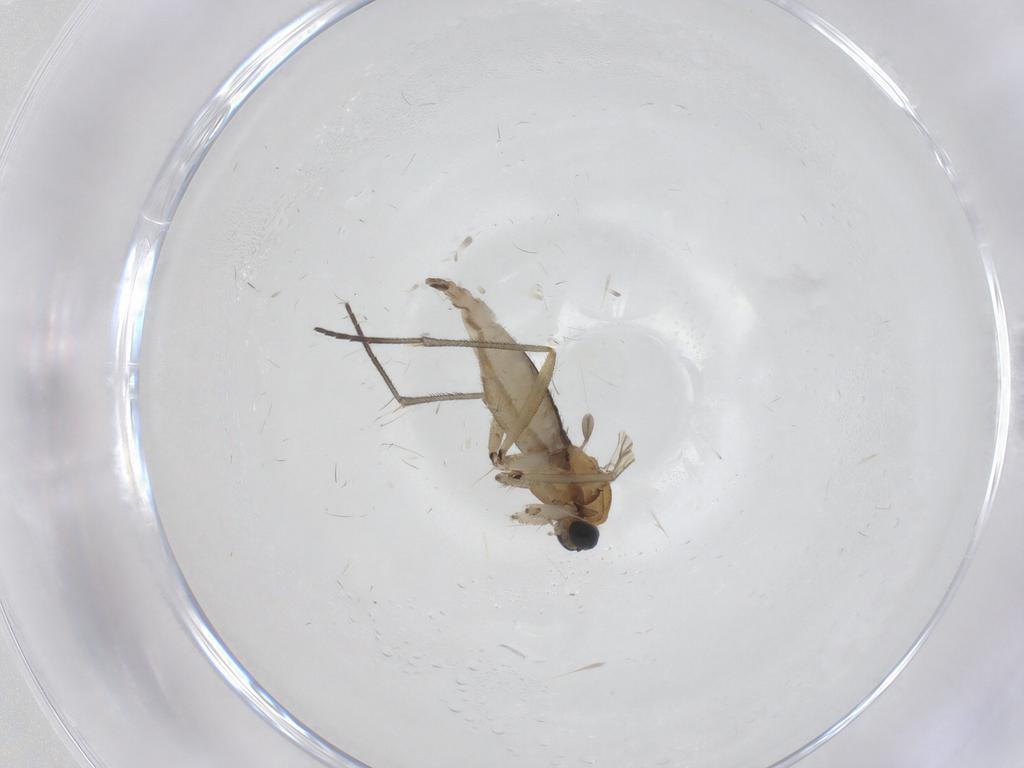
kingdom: Animalia
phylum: Arthropoda
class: Insecta
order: Diptera
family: Sciaridae
